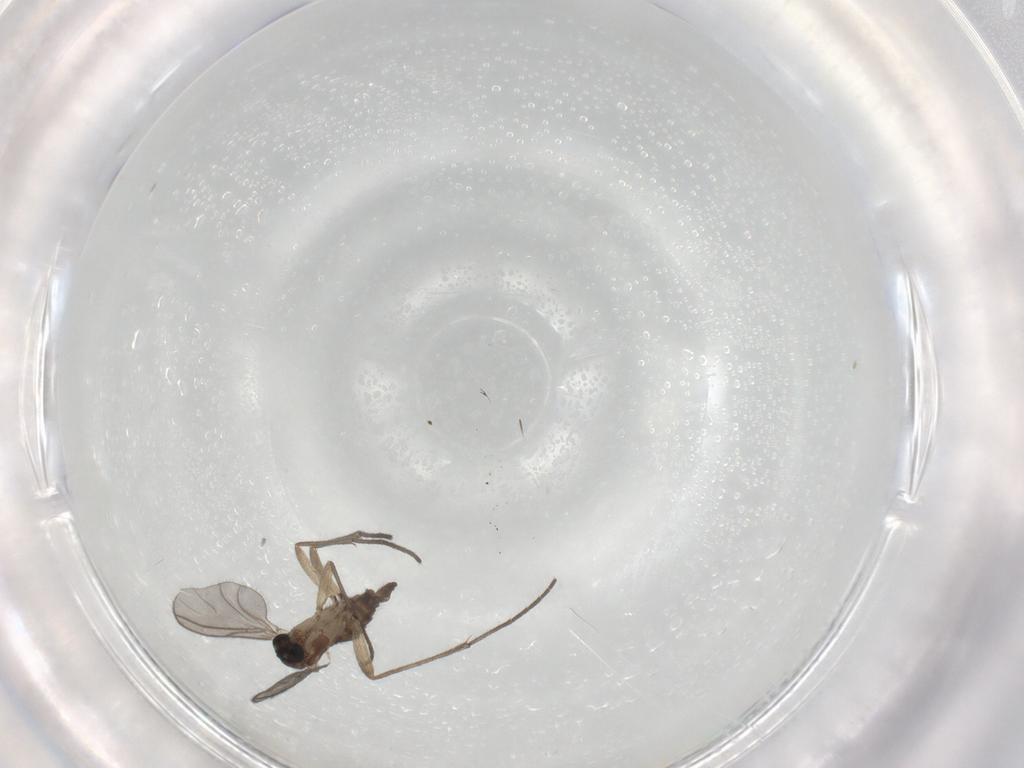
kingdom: Animalia
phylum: Arthropoda
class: Insecta
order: Diptera
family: Sciaridae
